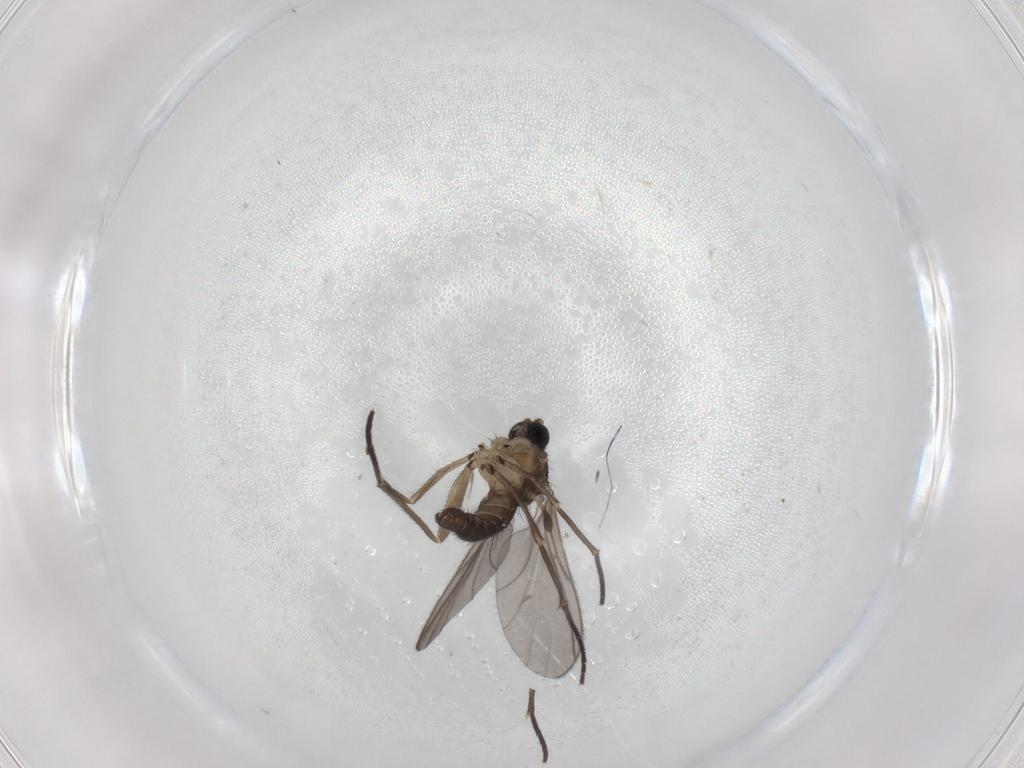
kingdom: Animalia
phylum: Arthropoda
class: Insecta
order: Diptera
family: Sciaridae
